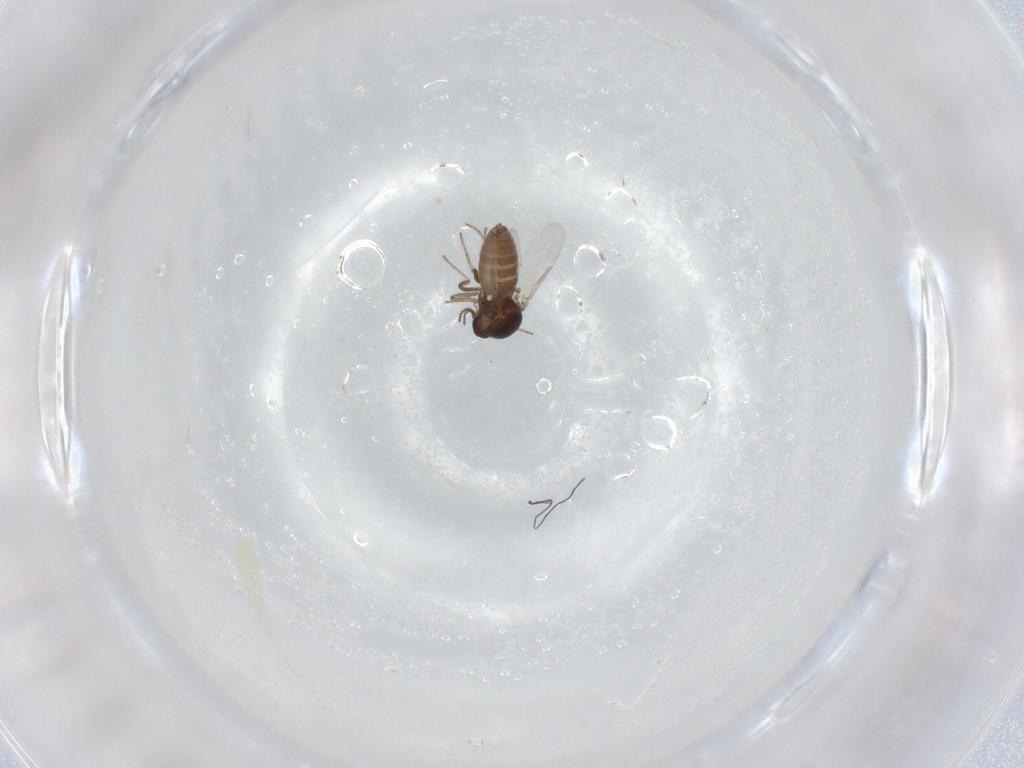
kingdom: Animalia
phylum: Arthropoda
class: Insecta
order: Diptera
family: Ceratopogonidae
